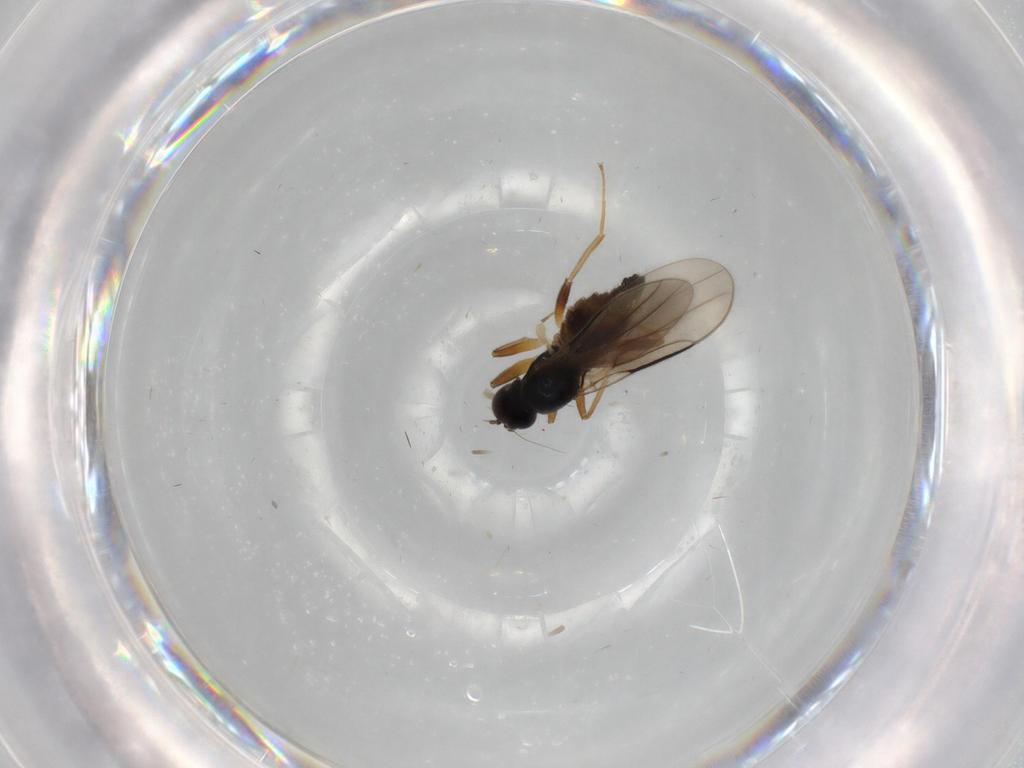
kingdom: Animalia
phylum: Arthropoda
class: Insecta
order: Diptera
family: Hybotidae
